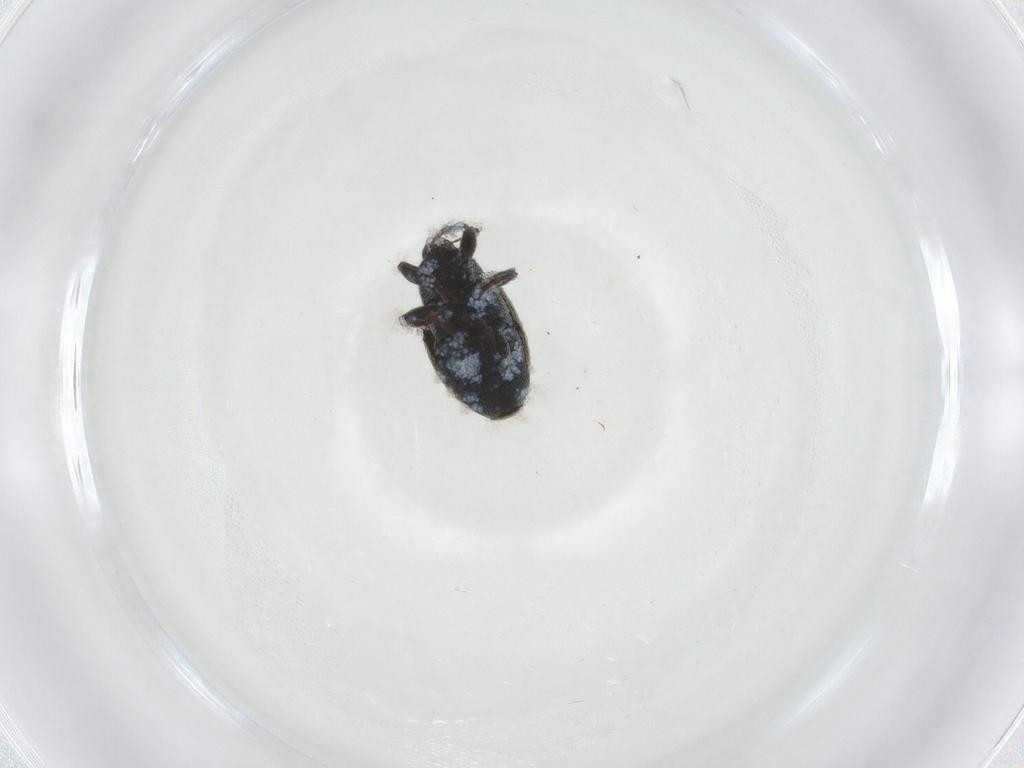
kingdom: Animalia
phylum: Arthropoda
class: Insecta
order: Coleoptera
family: Curculionidae
